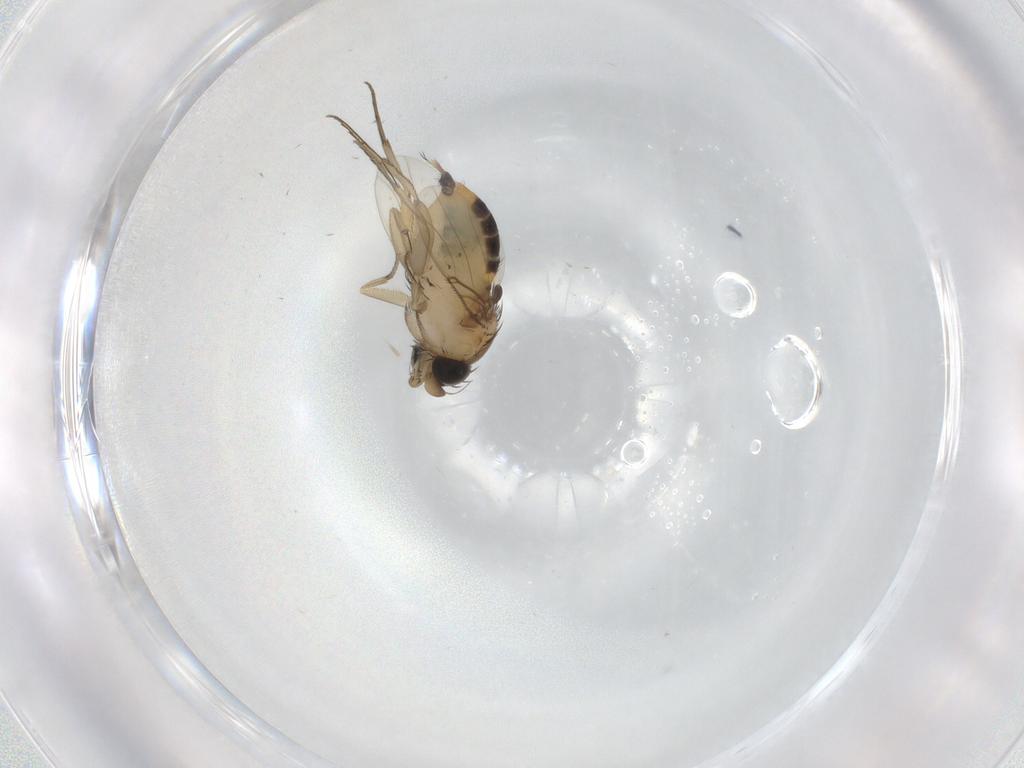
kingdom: Animalia
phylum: Arthropoda
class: Insecta
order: Diptera
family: Phoridae
